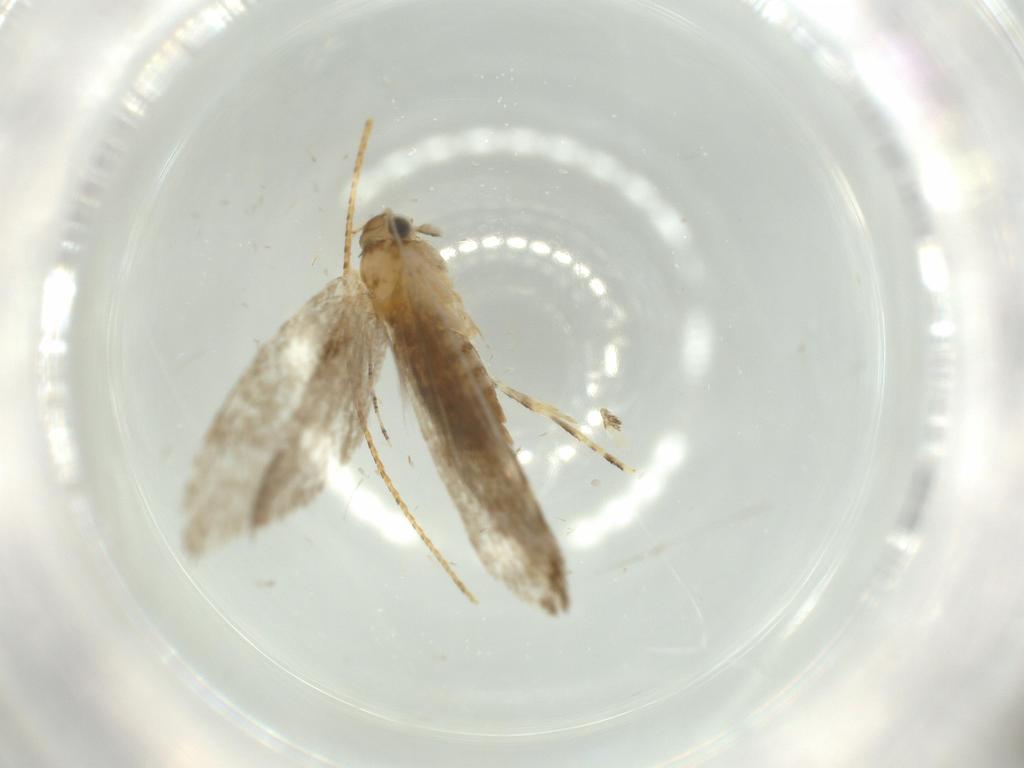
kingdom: Animalia
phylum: Arthropoda
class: Insecta
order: Lepidoptera
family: Tineidae
